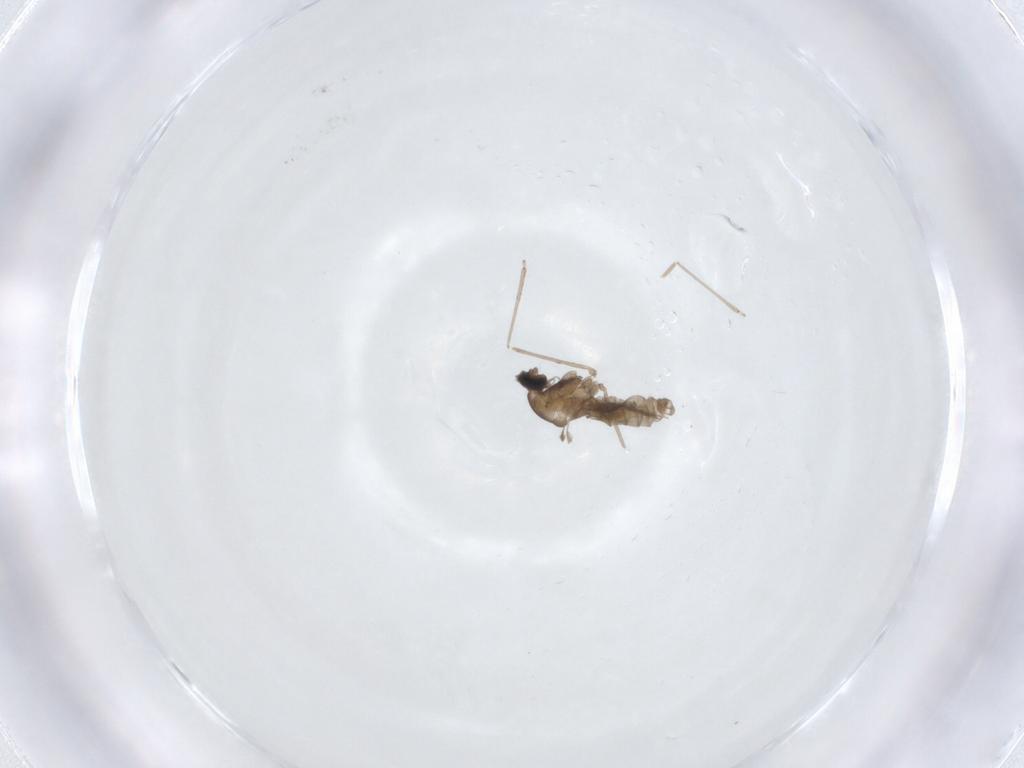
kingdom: Animalia
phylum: Arthropoda
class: Insecta
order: Diptera
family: Cecidomyiidae
